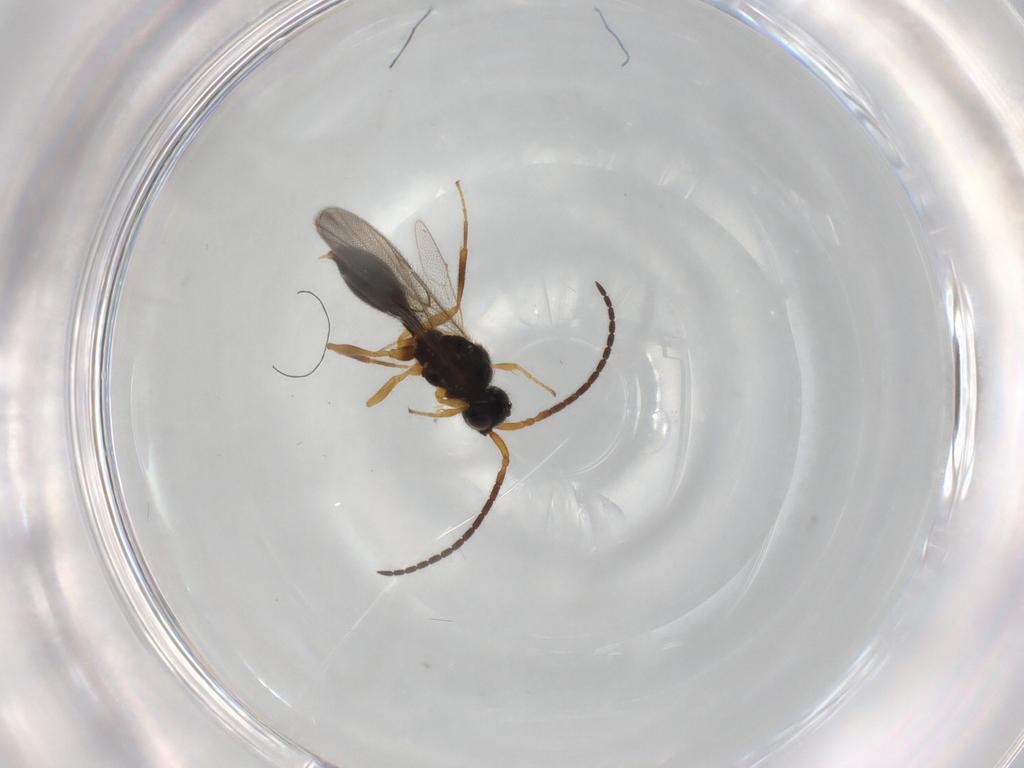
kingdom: Animalia
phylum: Arthropoda
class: Insecta
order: Hymenoptera
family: Diapriidae
